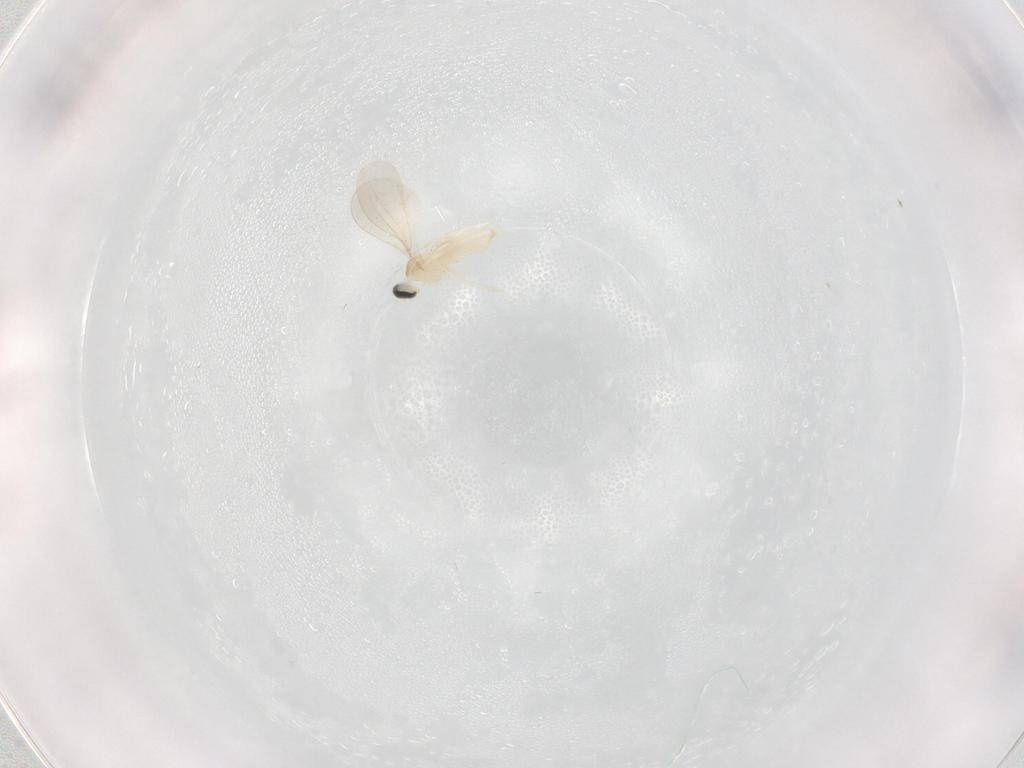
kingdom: Animalia
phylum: Arthropoda
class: Insecta
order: Diptera
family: Cecidomyiidae
